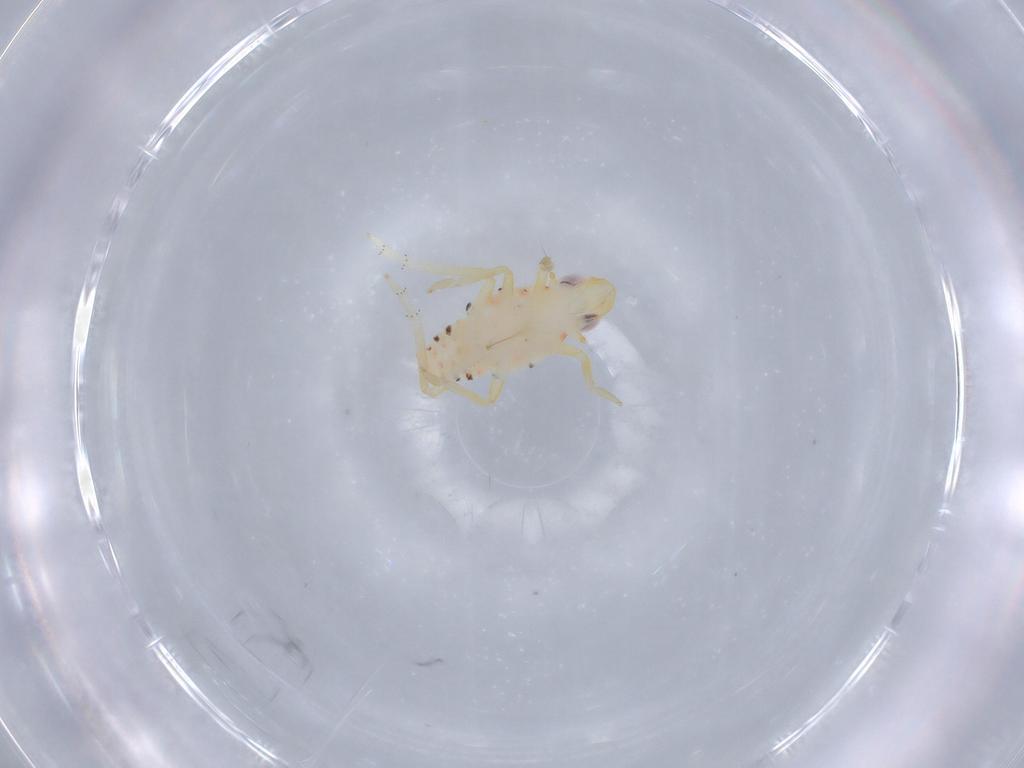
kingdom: Animalia
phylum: Arthropoda
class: Insecta
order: Hemiptera
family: Tropiduchidae
